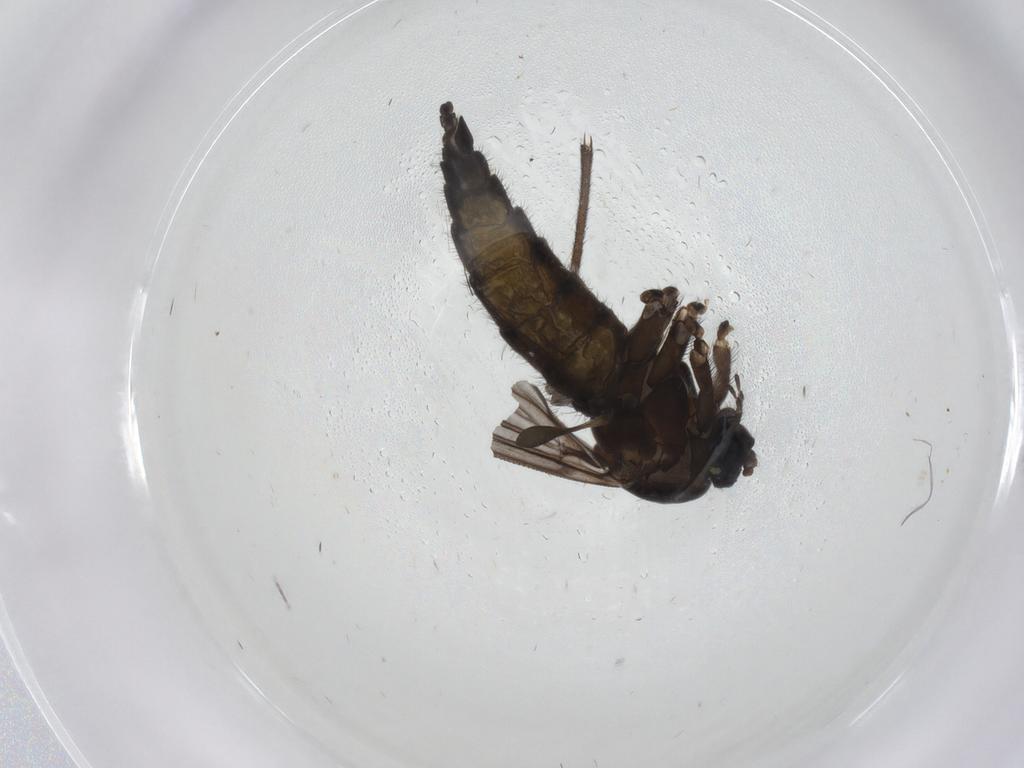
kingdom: Animalia
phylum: Arthropoda
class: Insecta
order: Diptera
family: Sciaridae
